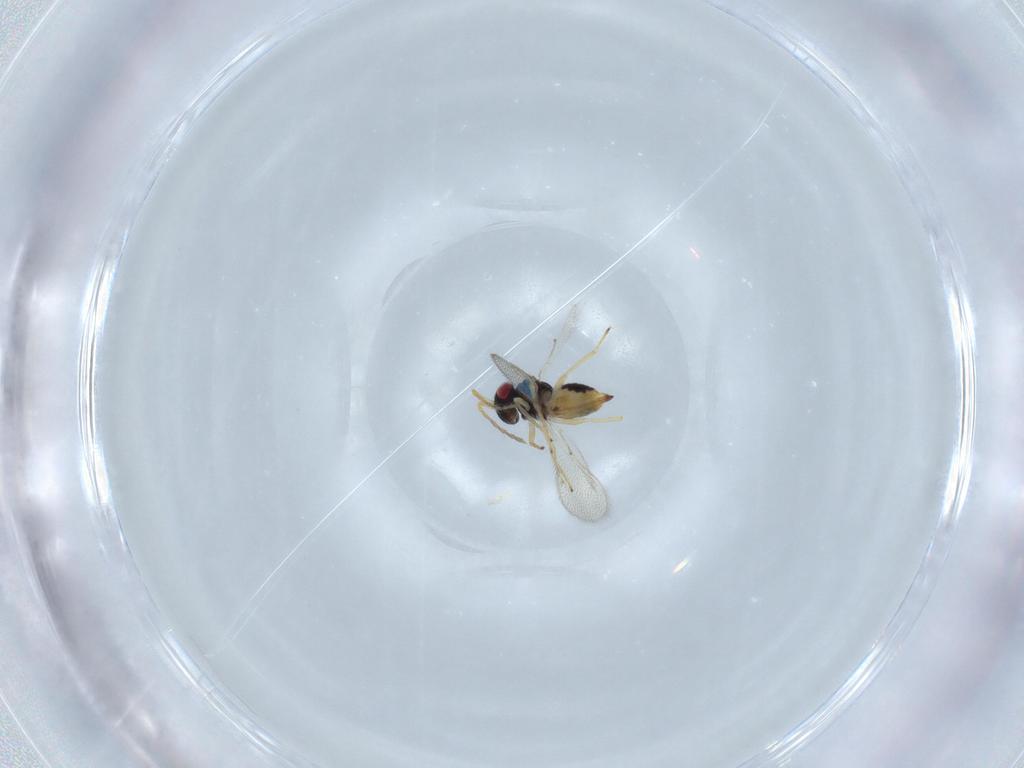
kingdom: Animalia
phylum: Arthropoda
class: Insecta
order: Hymenoptera
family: Eulophidae
